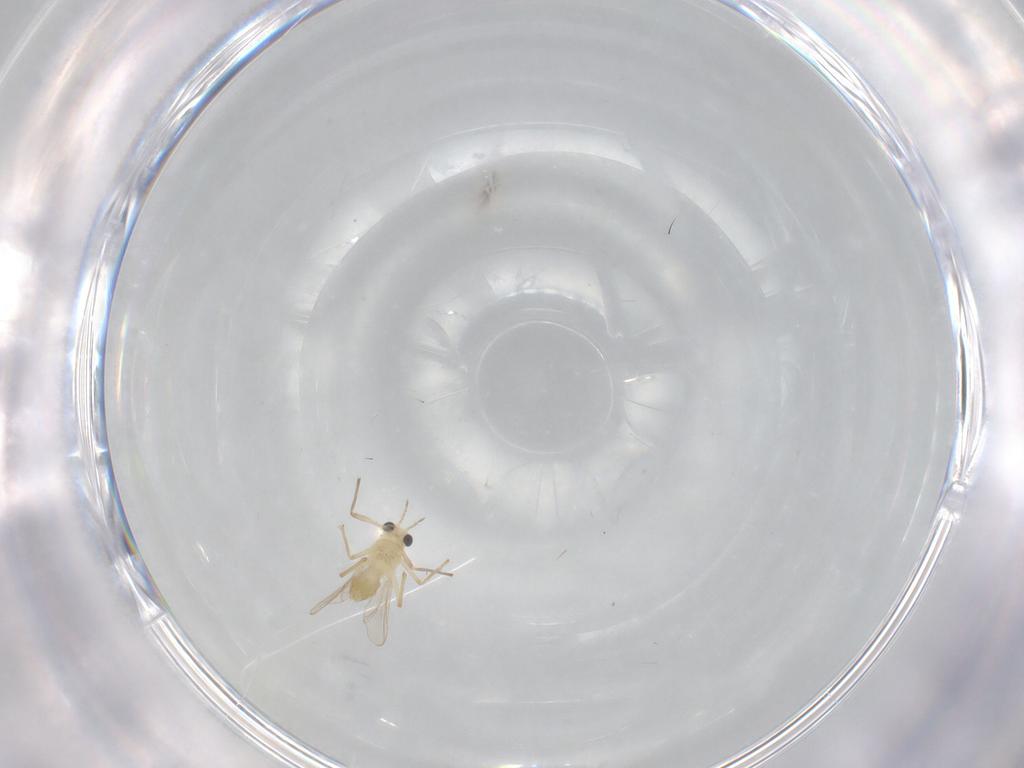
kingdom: Animalia
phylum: Arthropoda
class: Insecta
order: Diptera
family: Chironomidae
